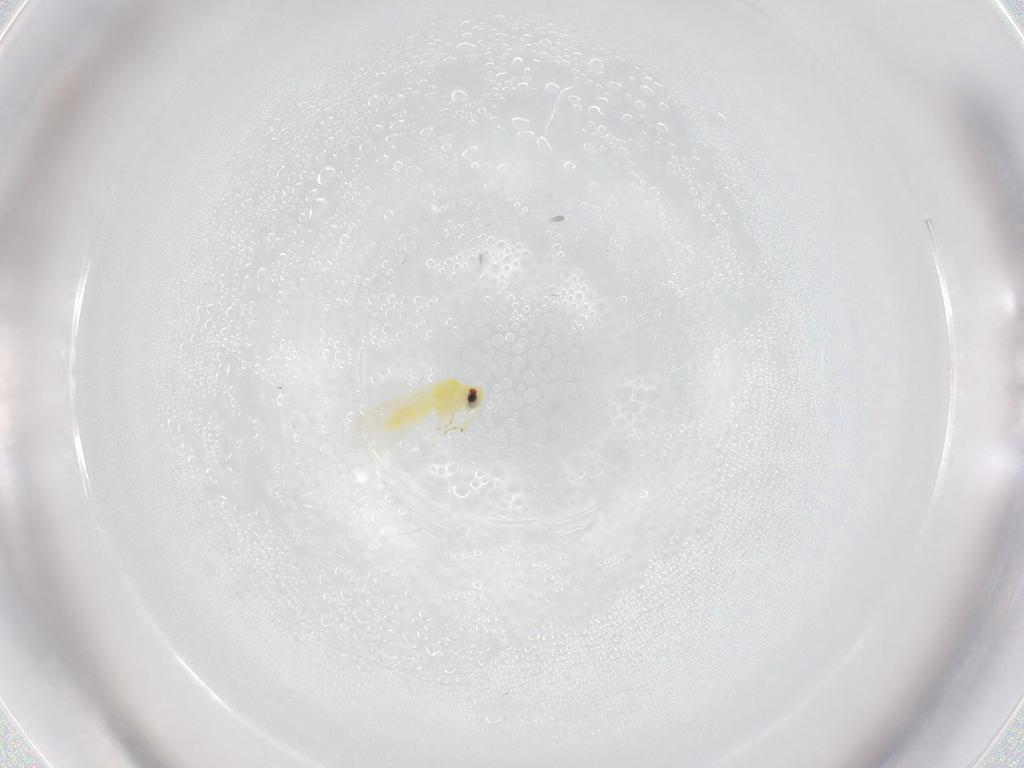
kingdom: Animalia
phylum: Arthropoda
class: Insecta
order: Hemiptera
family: Aleyrodidae
